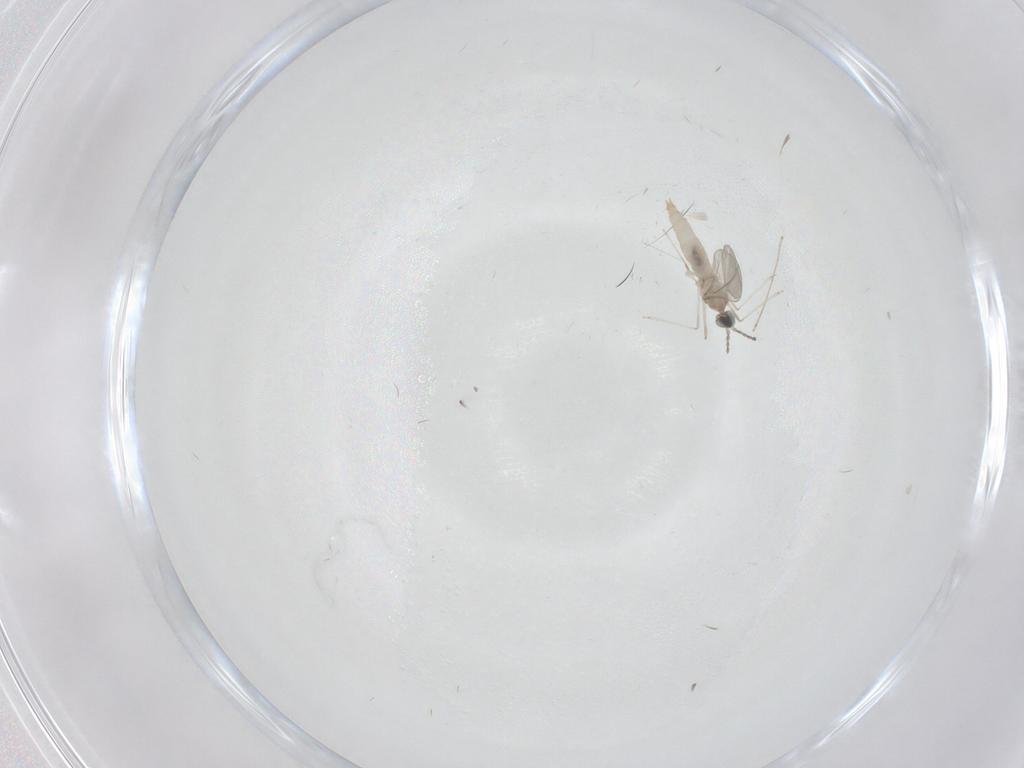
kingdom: Animalia
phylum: Arthropoda
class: Insecta
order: Diptera
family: Cecidomyiidae
